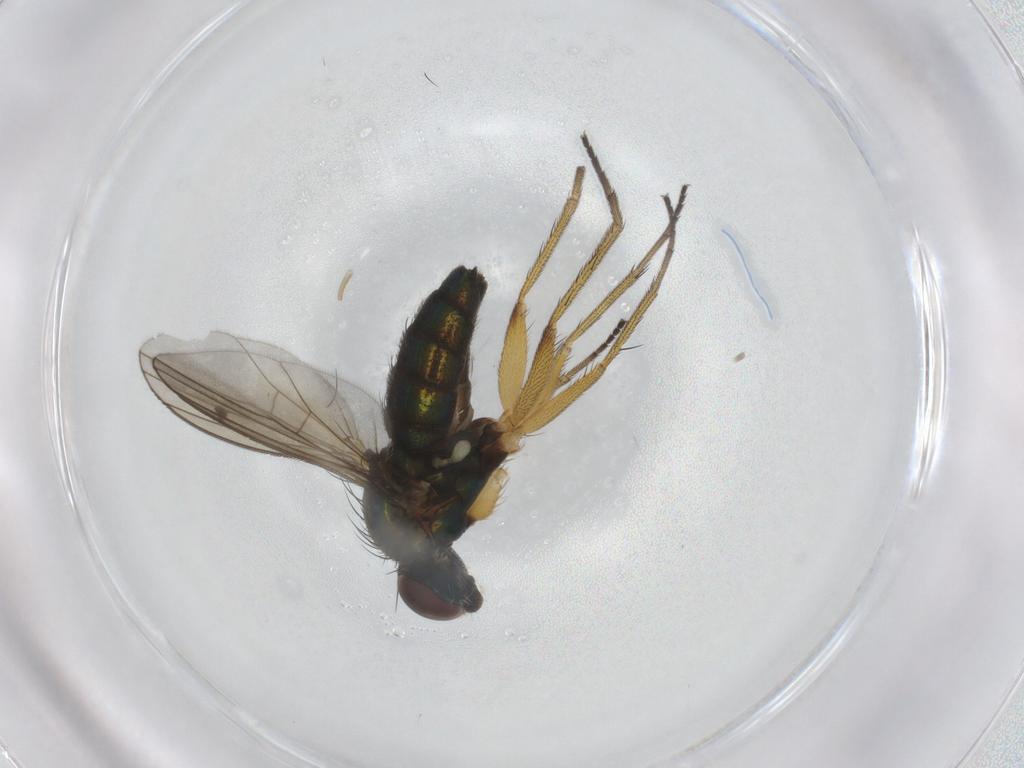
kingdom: Animalia
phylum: Arthropoda
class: Insecta
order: Diptera
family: Dolichopodidae
